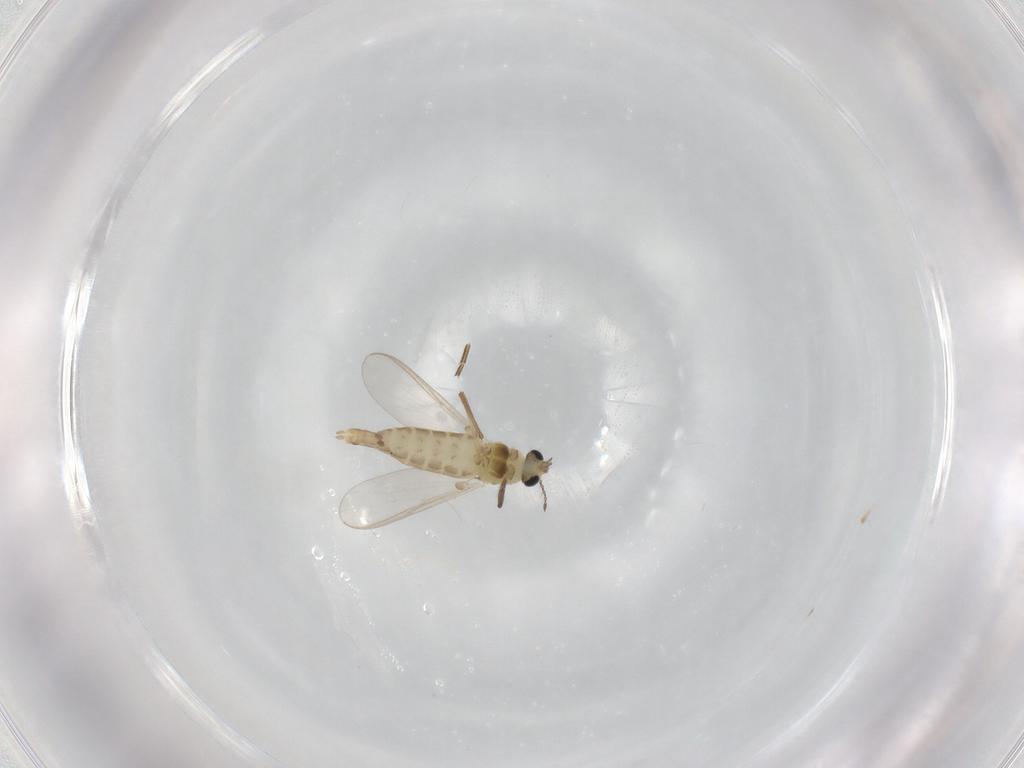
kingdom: Animalia
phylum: Arthropoda
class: Insecta
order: Diptera
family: Chironomidae
